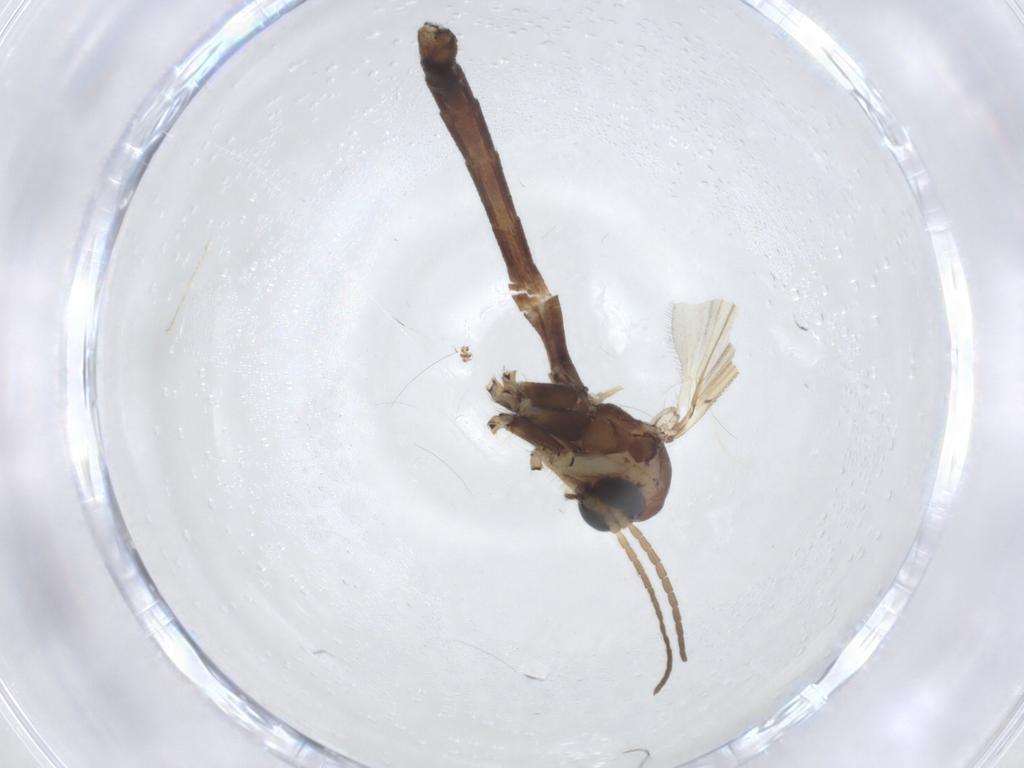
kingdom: Animalia
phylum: Arthropoda
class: Insecta
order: Diptera
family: Chironomidae
